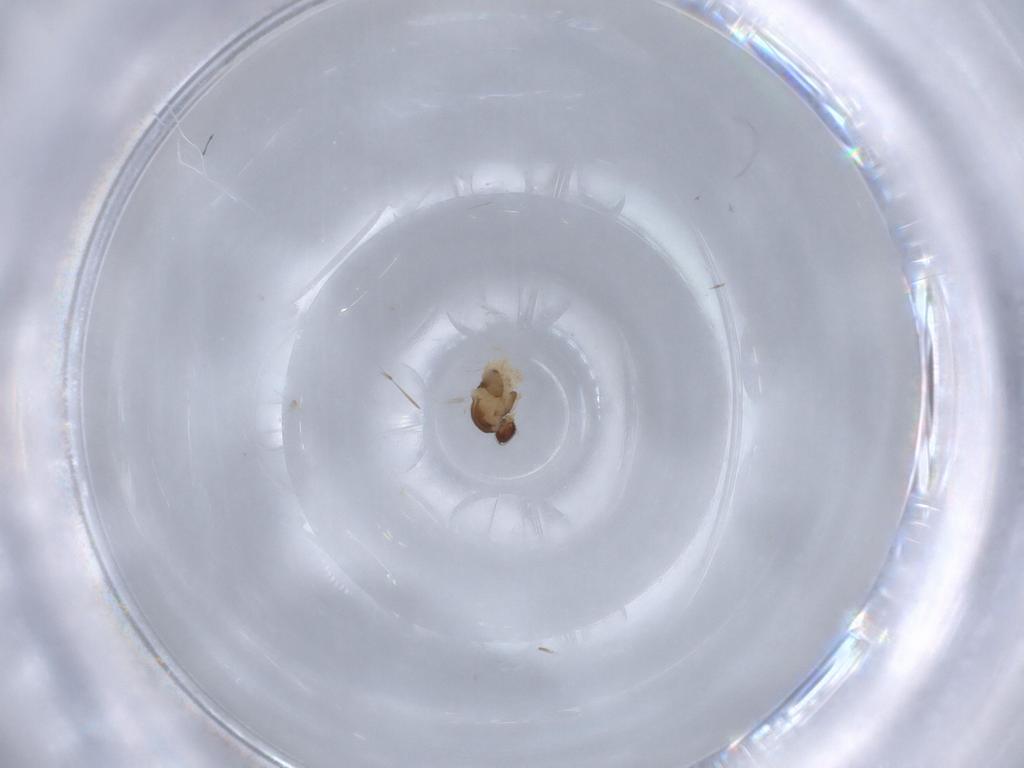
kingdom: Animalia
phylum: Arthropoda
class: Insecta
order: Diptera
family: Cecidomyiidae
